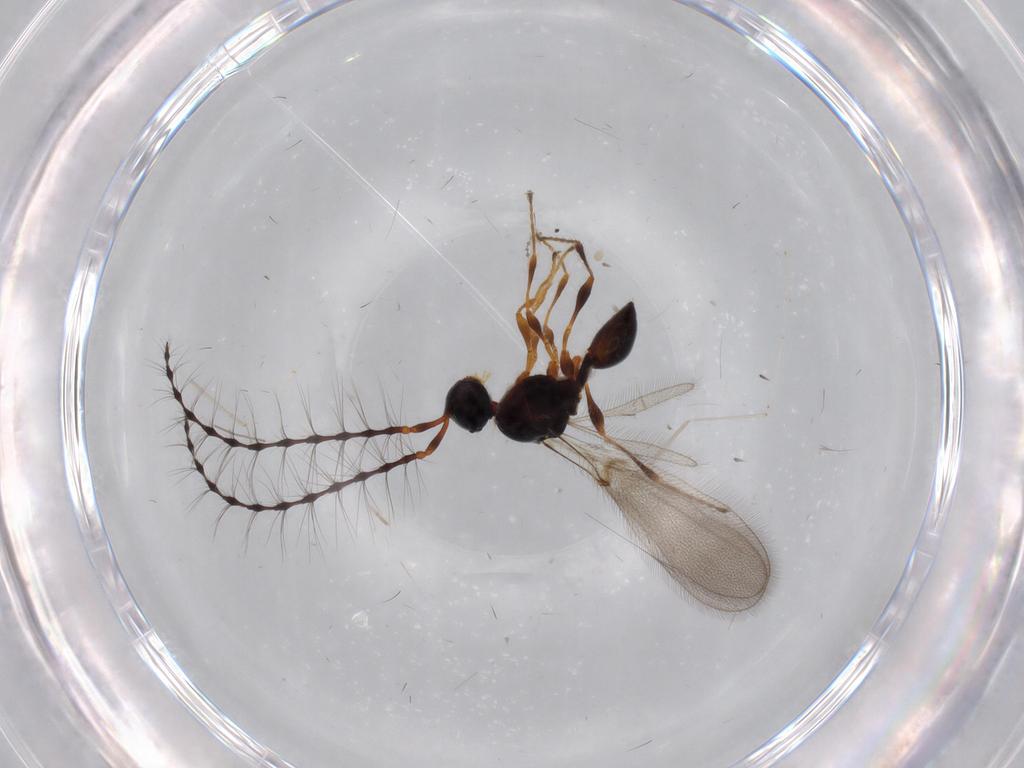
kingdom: Animalia
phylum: Arthropoda
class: Insecta
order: Hymenoptera
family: Diapriidae
